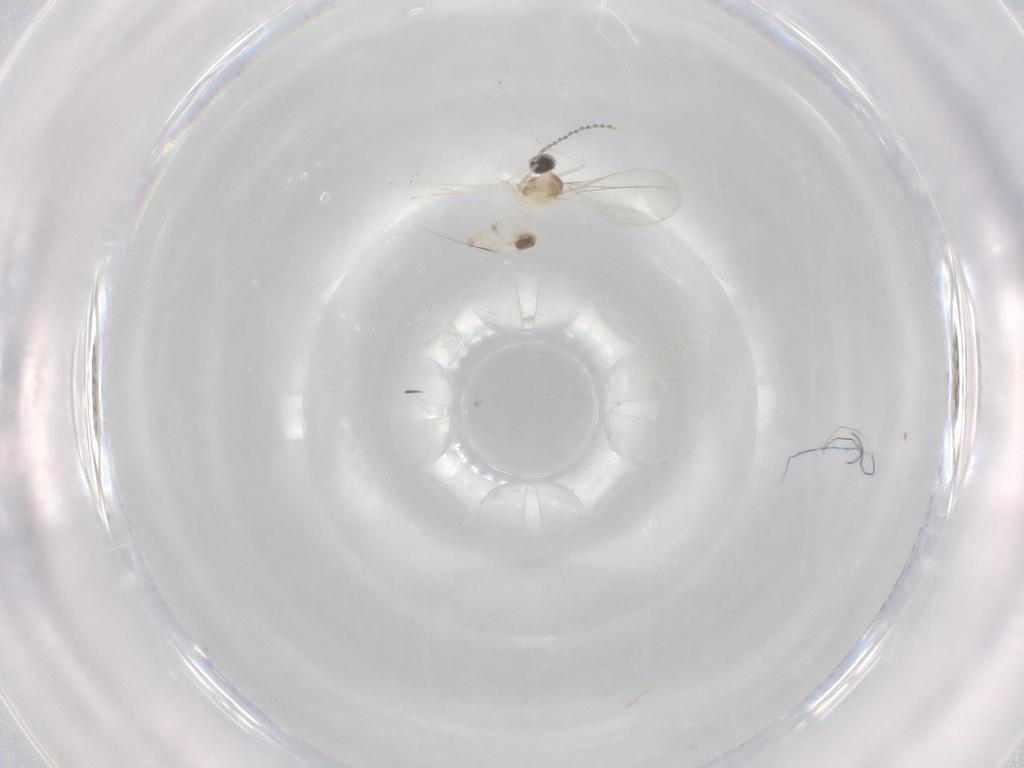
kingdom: Animalia
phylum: Arthropoda
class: Insecta
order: Diptera
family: Cecidomyiidae
